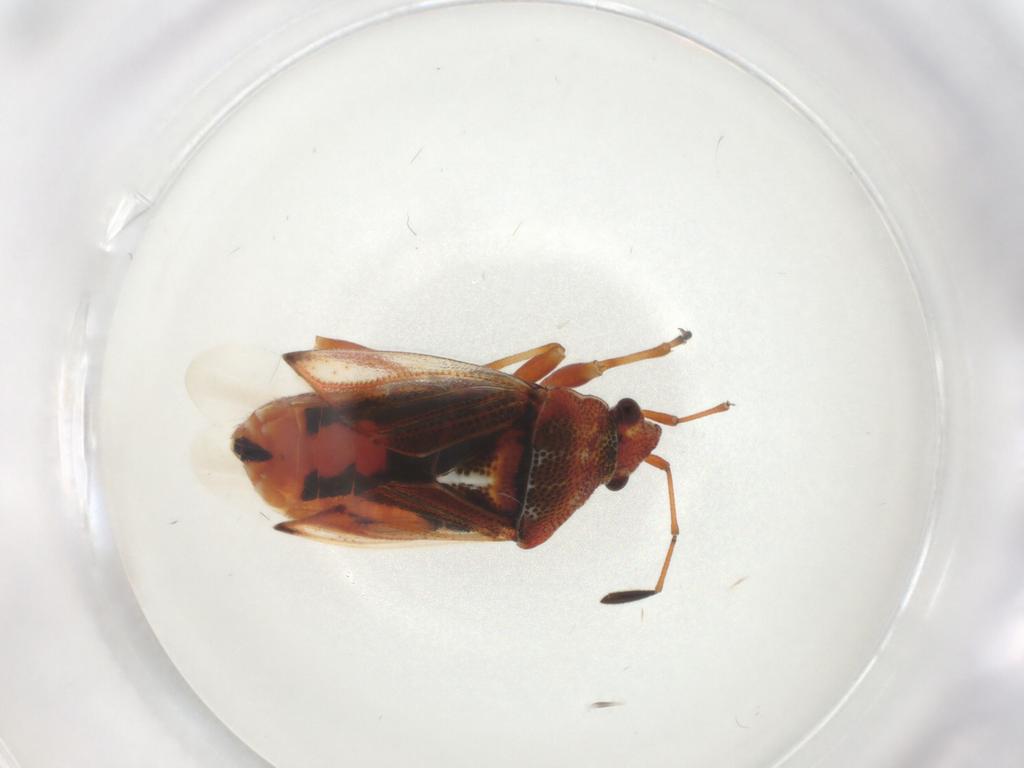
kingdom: Animalia
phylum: Arthropoda
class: Insecta
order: Hemiptera
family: Lygaeidae
